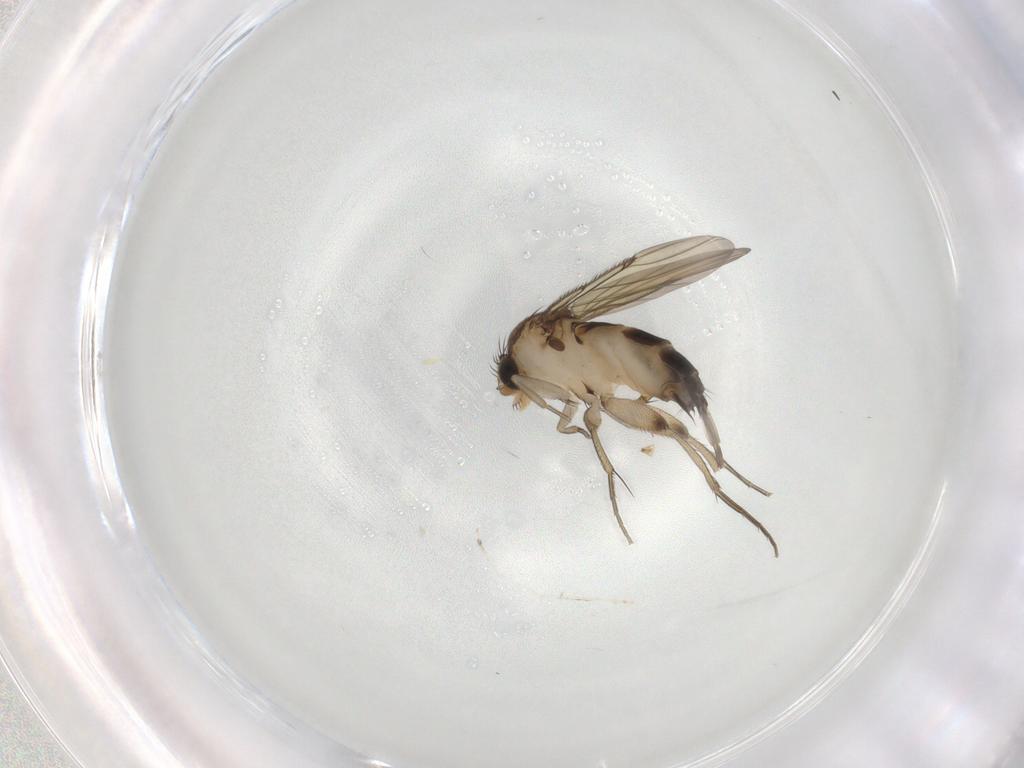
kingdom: Animalia
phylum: Arthropoda
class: Insecta
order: Diptera
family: Phoridae
